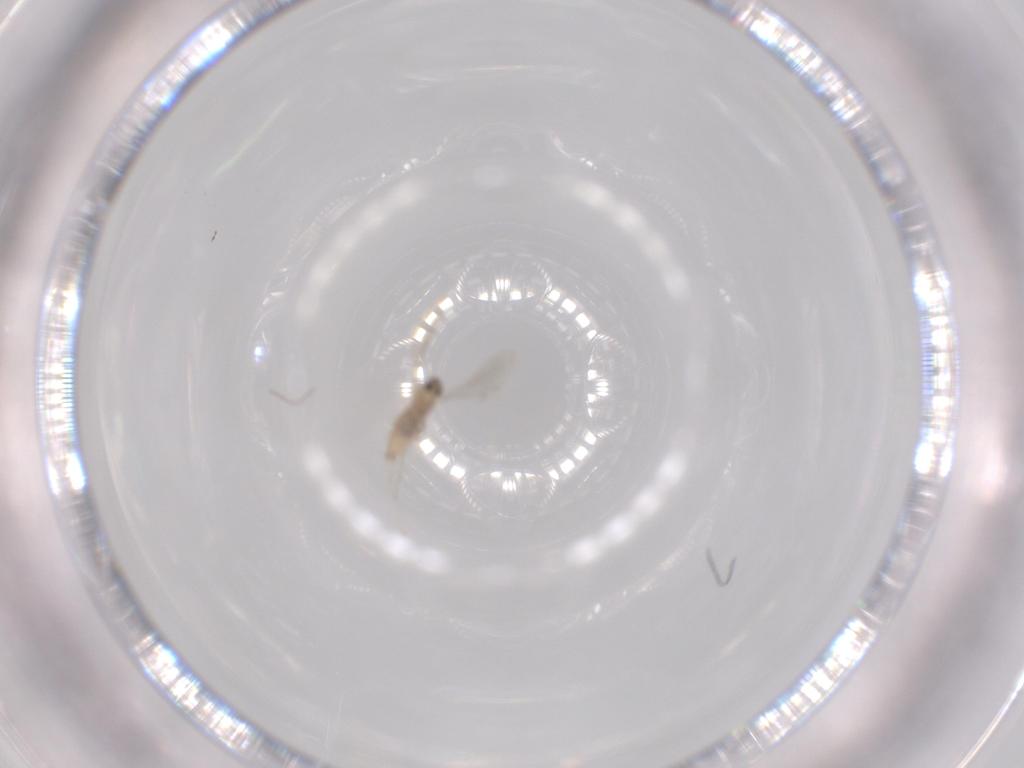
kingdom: Animalia
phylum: Arthropoda
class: Insecta
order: Diptera
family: Cecidomyiidae
